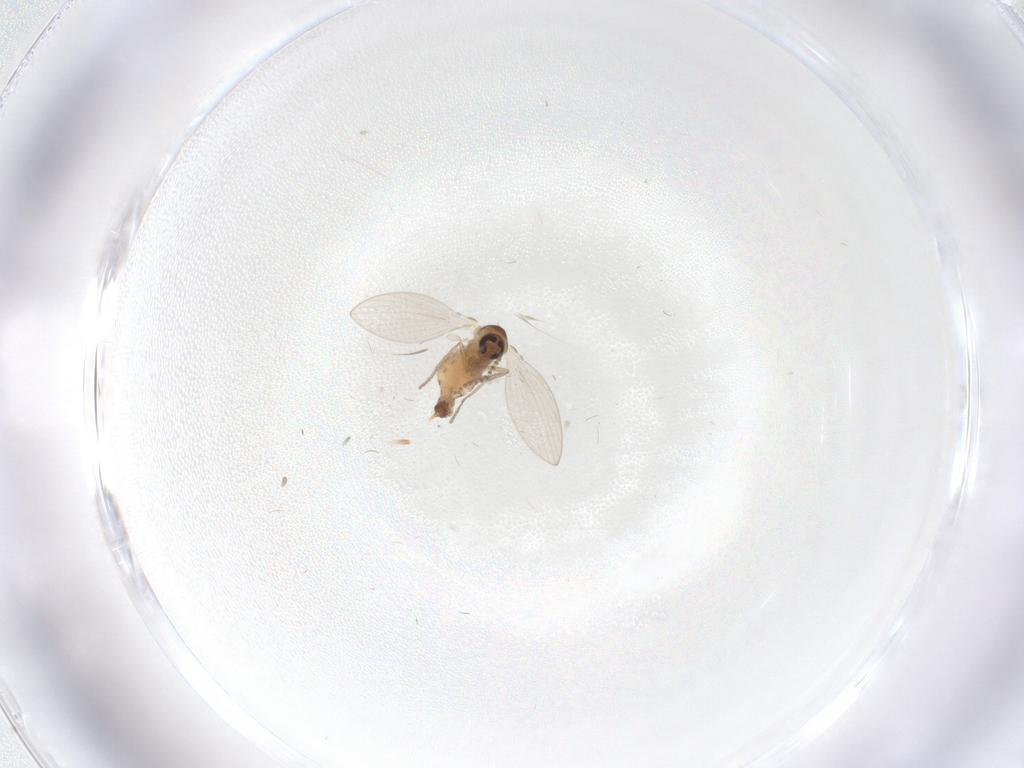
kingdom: Animalia
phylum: Arthropoda
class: Insecta
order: Diptera
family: Psychodidae
